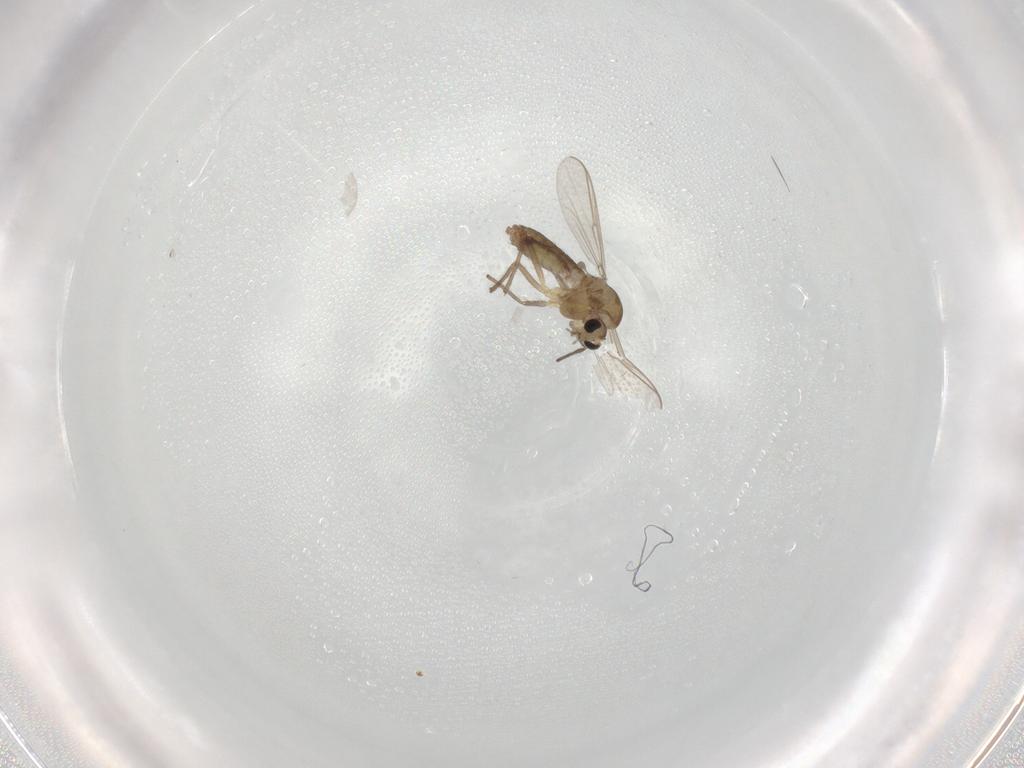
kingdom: Animalia
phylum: Arthropoda
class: Insecta
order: Diptera
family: Chironomidae
